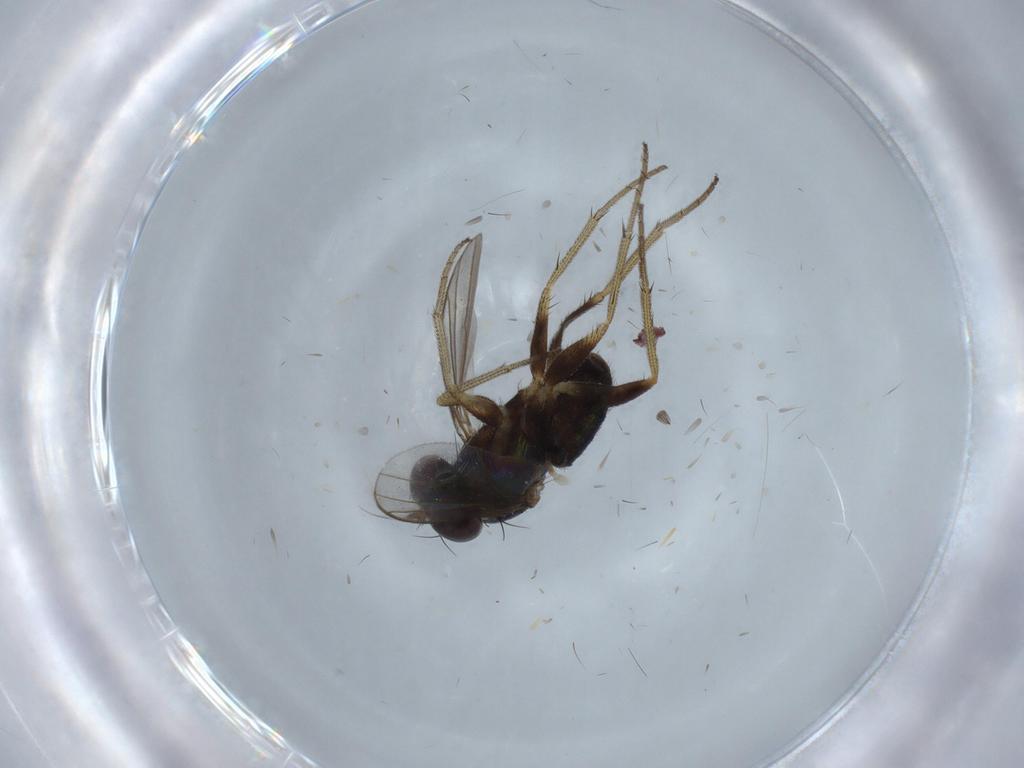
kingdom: Animalia
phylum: Arthropoda
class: Insecta
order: Diptera
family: Stratiomyidae
